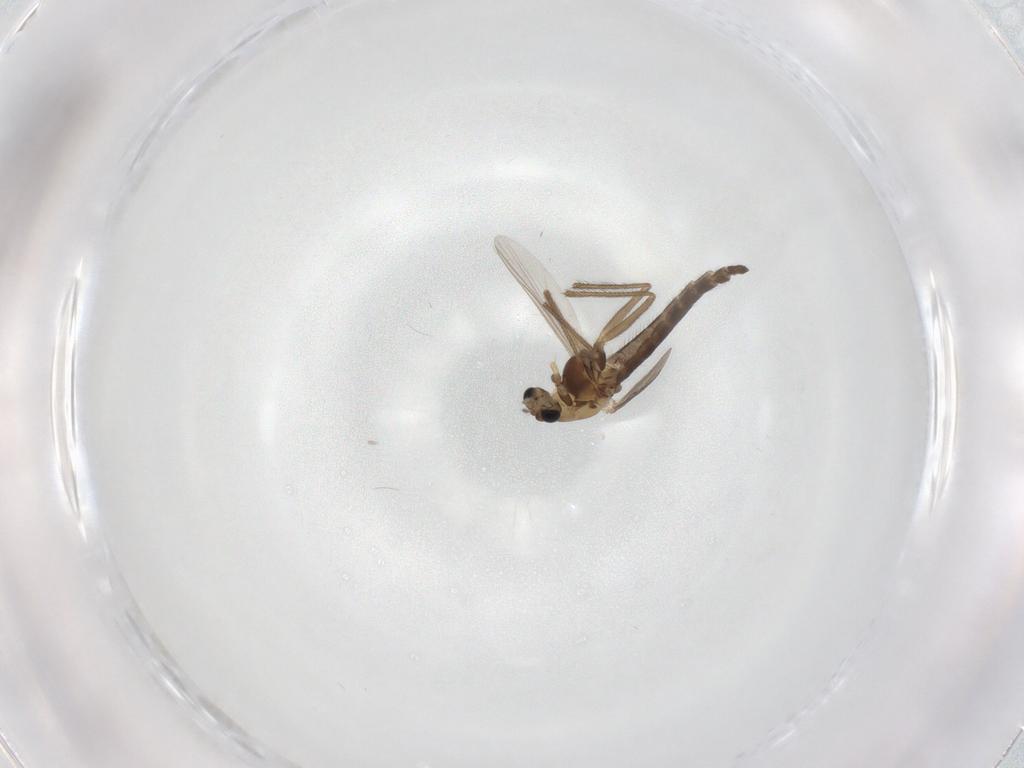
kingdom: Animalia
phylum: Arthropoda
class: Insecta
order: Diptera
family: Chironomidae
